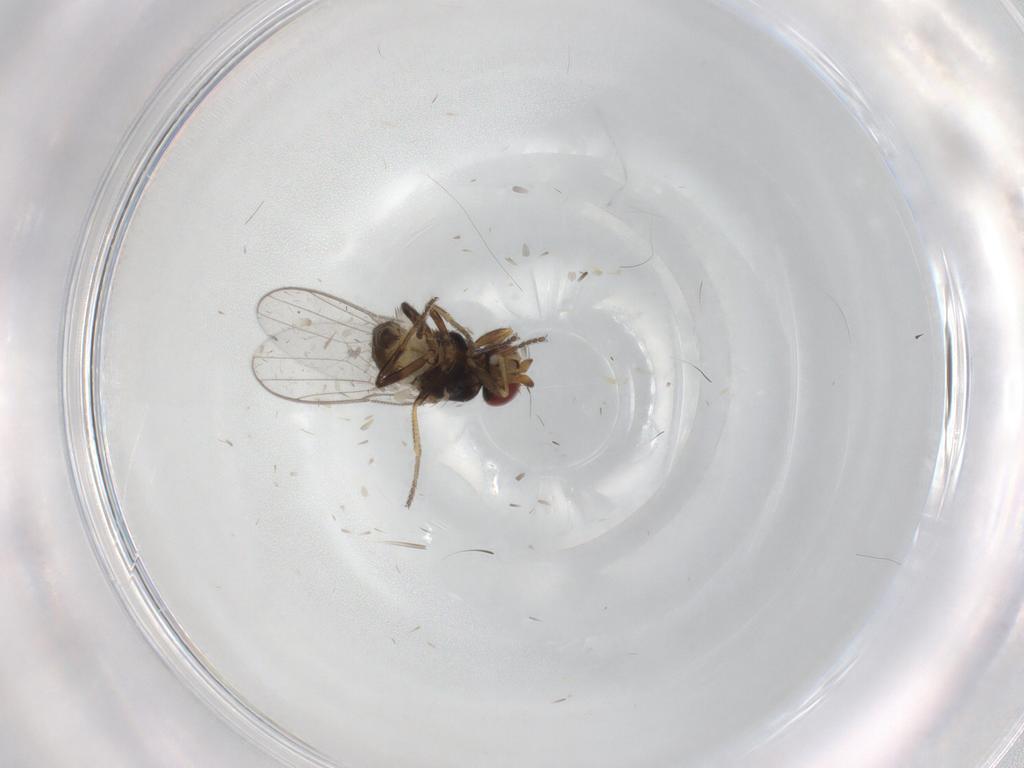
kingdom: Animalia
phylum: Arthropoda
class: Insecta
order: Diptera
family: Chloropidae
